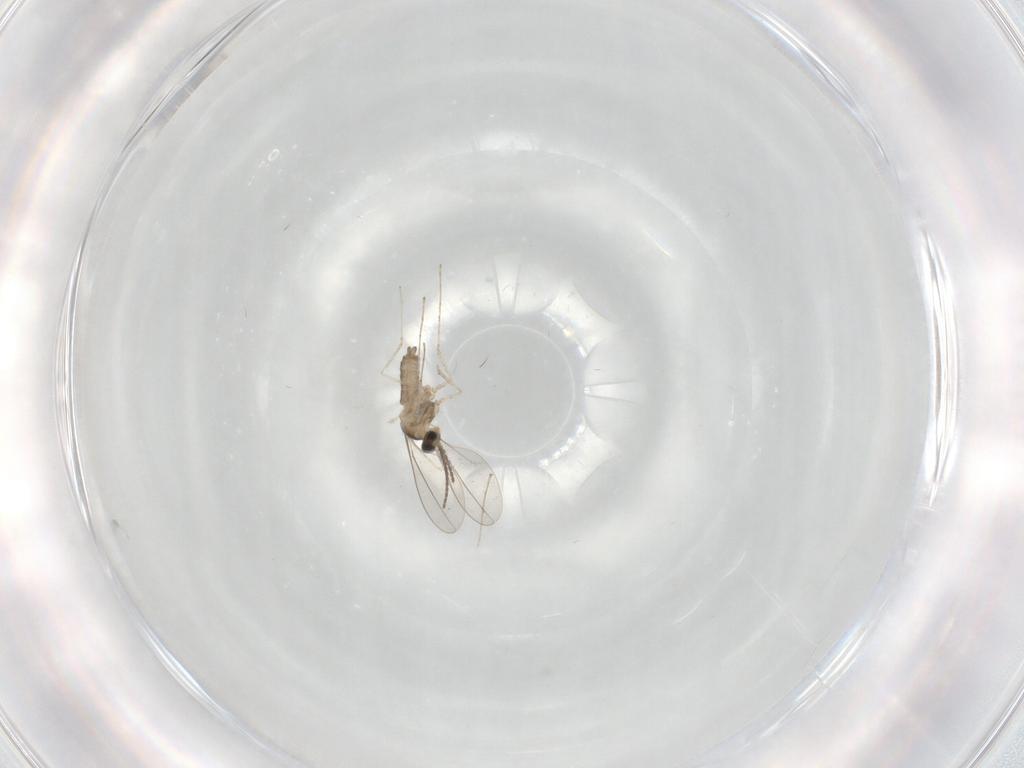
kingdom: Animalia
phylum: Arthropoda
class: Insecta
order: Diptera
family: Cecidomyiidae
